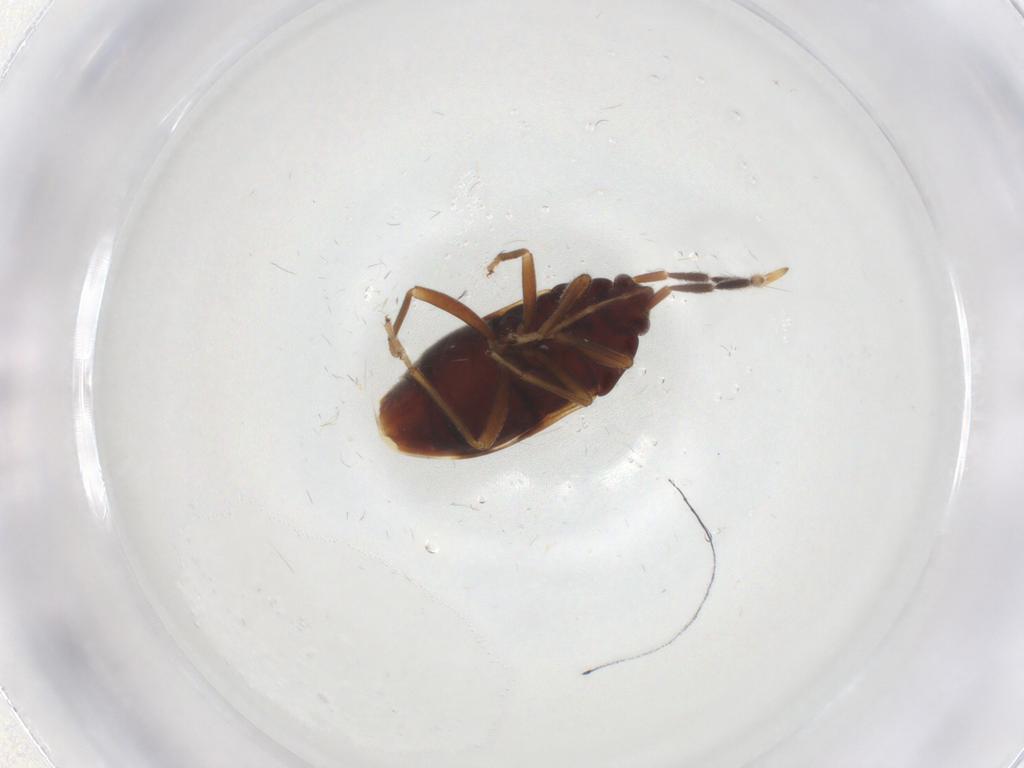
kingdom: Animalia
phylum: Arthropoda
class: Insecta
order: Hemiptera
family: Rhyparochromidae
